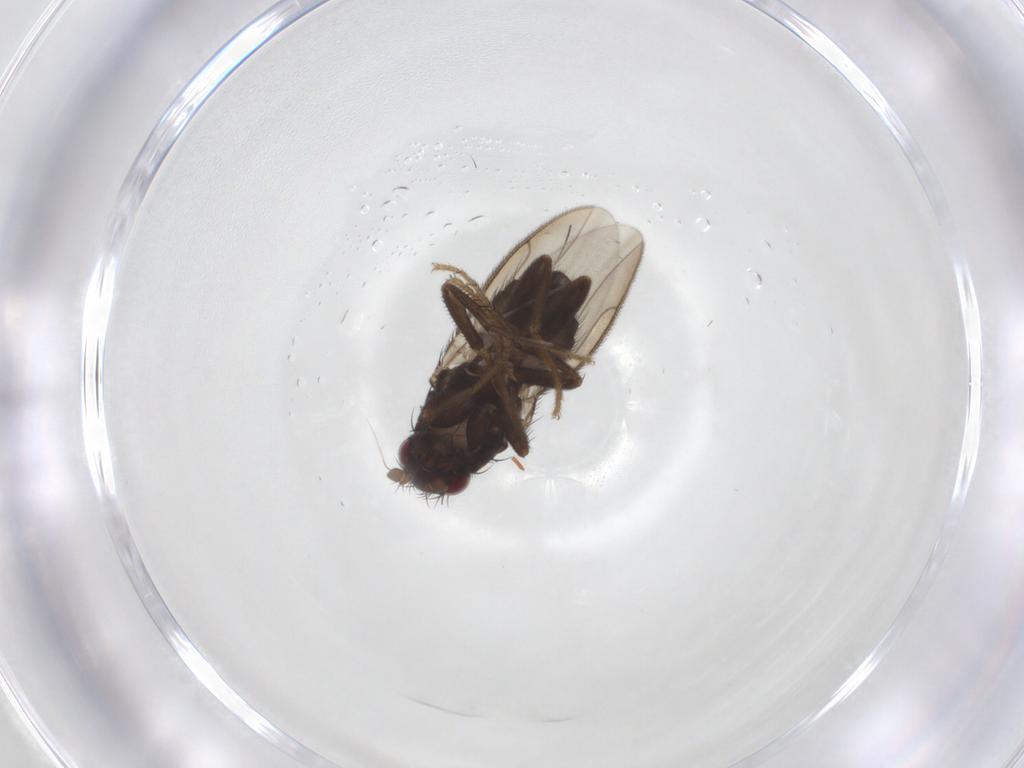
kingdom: Animalia
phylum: Arthropoda
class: Insecta
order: Diptera
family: Sphaeroceridae
